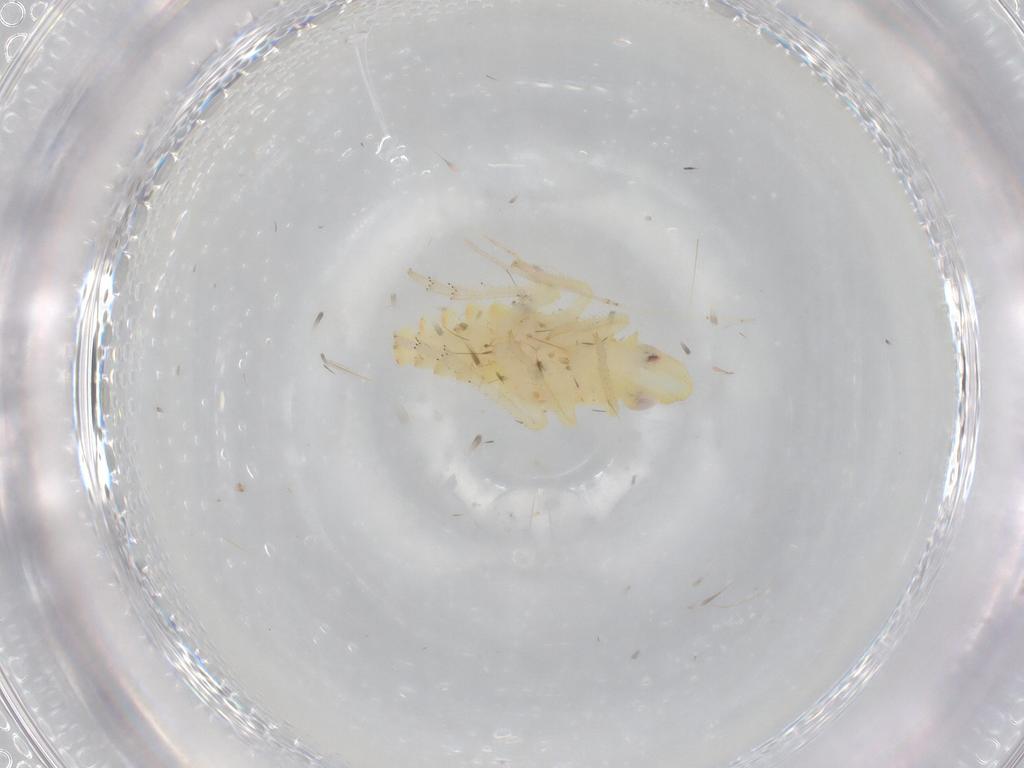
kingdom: Animalia
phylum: Arthropoda
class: Insecta
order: Hemiptera
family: Tropiduchidae
